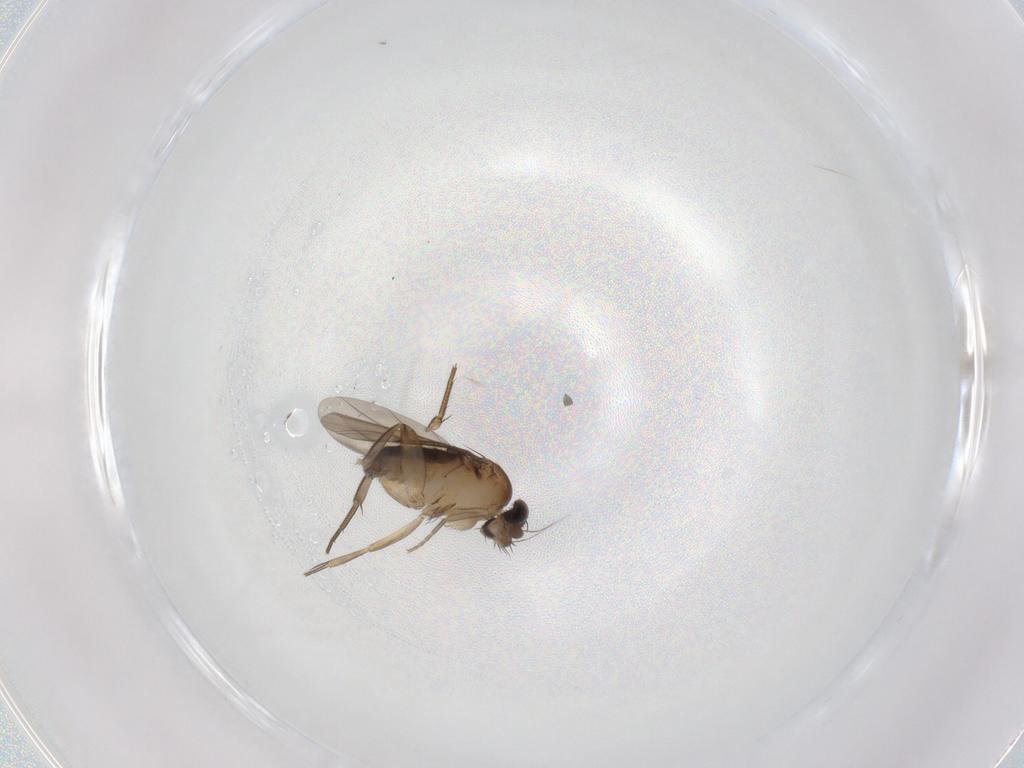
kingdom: Animalia
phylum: Arthropoda
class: Insecta
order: Diptera
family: Phoridae
